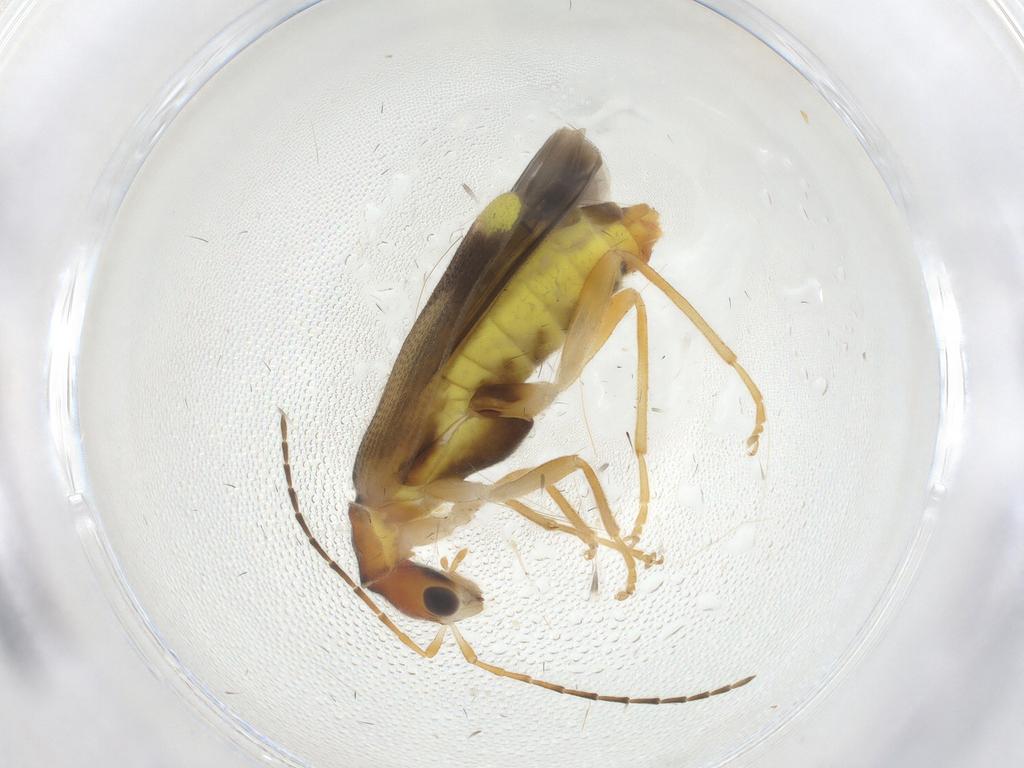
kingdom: Animalia
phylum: Arthropoda
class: Insecta
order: Coleoptera
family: Cantharidae
